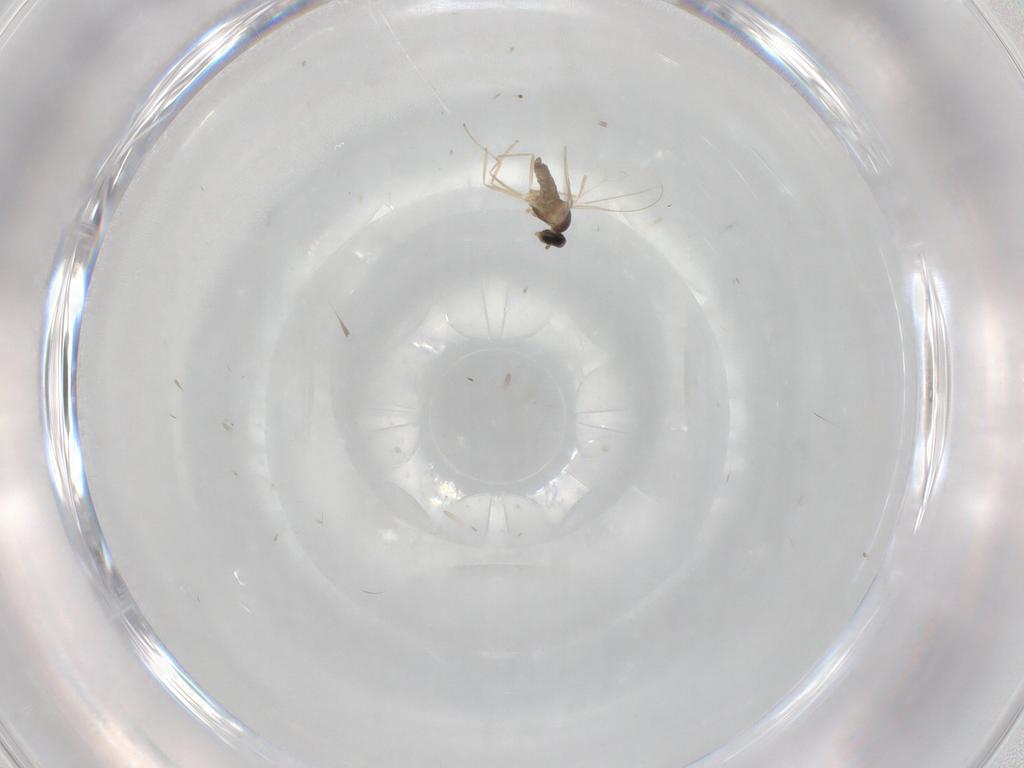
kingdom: Animalia
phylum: Arthropoda
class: Insecta
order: Diptera
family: Cecidomyiidae
